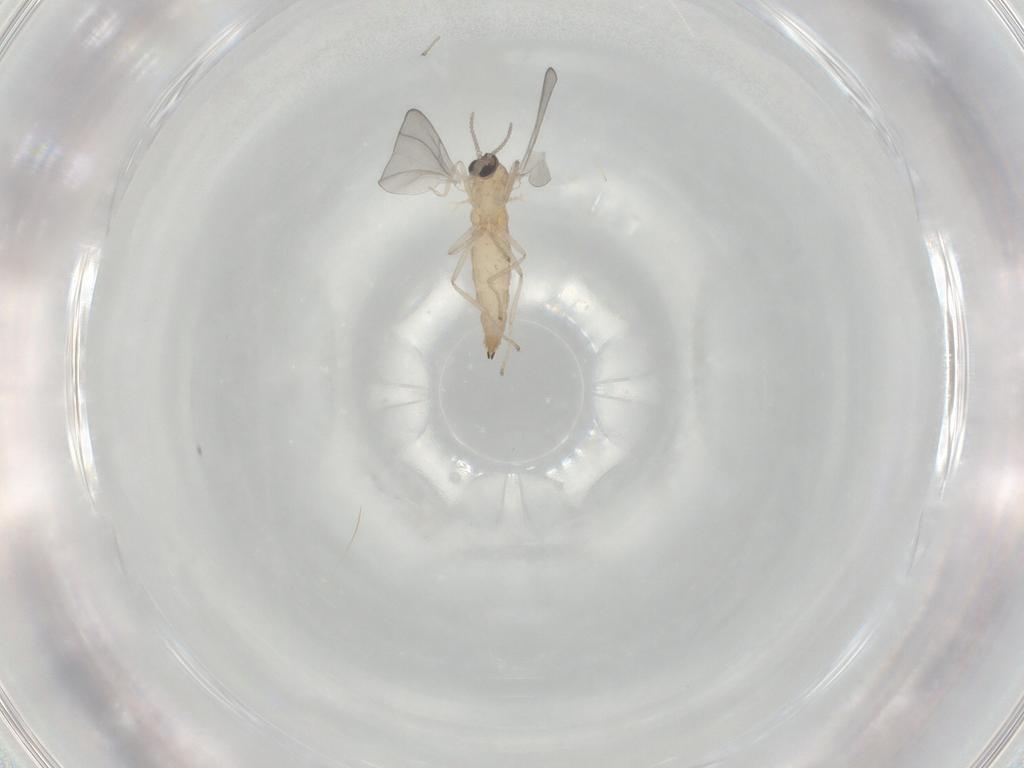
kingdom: Animalia
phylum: Arthropoda
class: Insecta
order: Diptera
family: Cecidomyiidae
